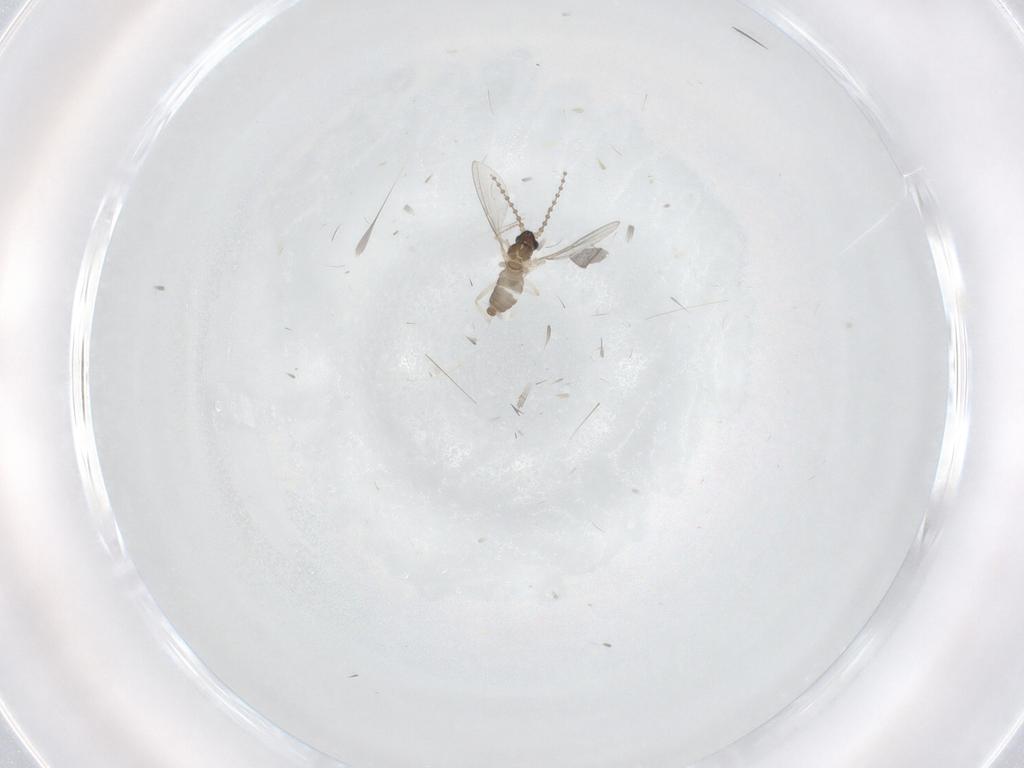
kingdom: Animalia
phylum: Arthropoda
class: Insecta
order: Diptera
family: Cecidomyiidae
